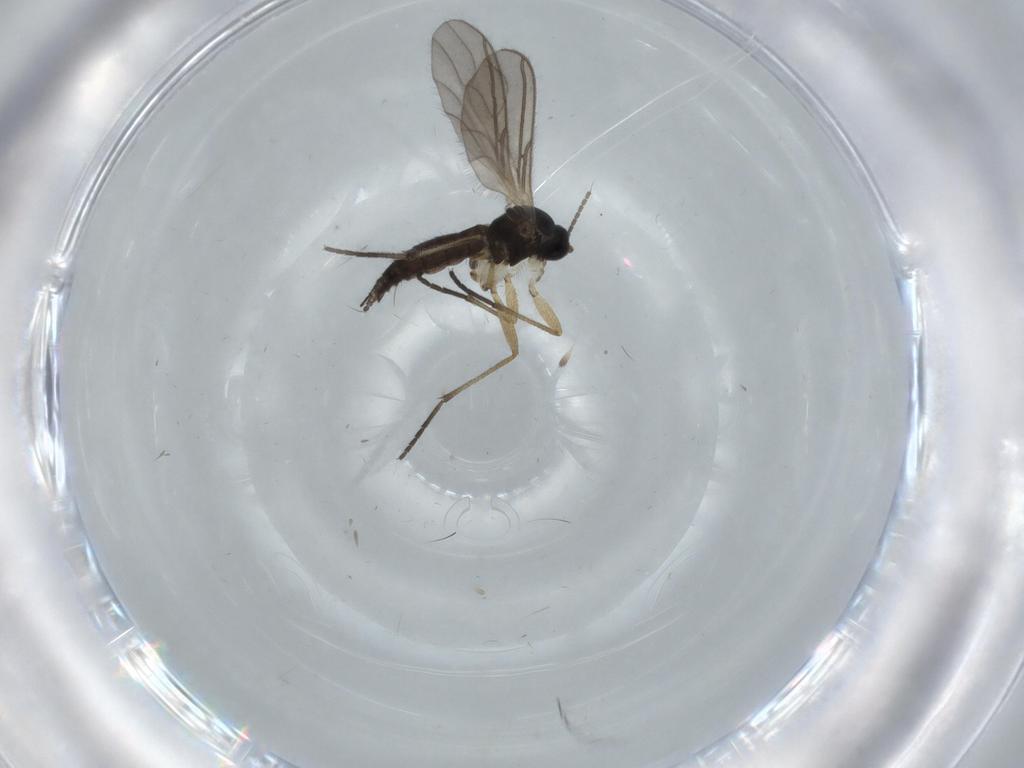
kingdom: Animalia
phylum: Arthropoda
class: Insecta
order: Diptera
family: Sciaridae
